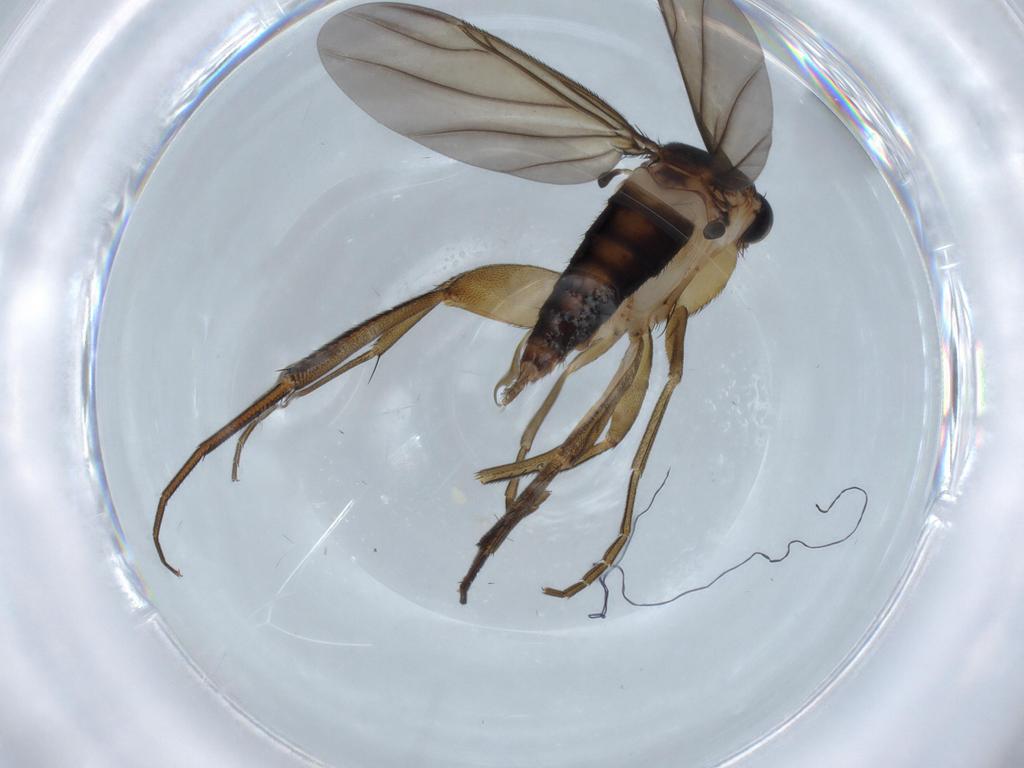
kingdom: Animalia
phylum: Arthropoda
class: Insecta
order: Diptera
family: Phoridae
